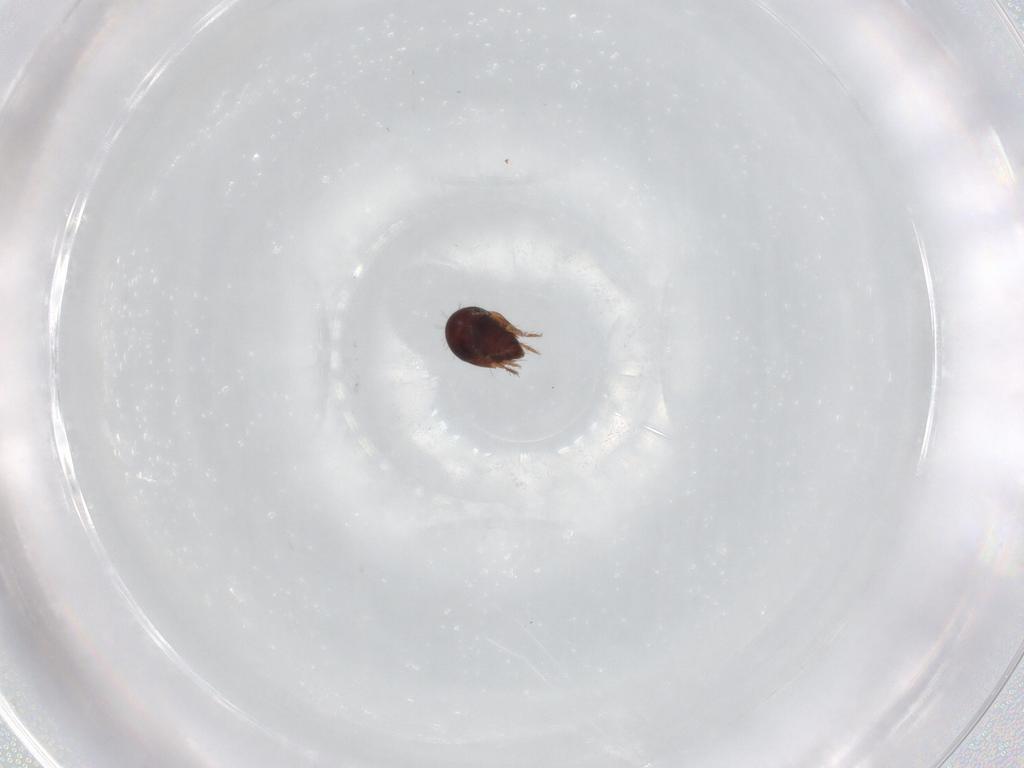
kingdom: Animalia
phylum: Arthropoda
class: Arachnida
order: Sarcoptiformes
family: Humerobatidae
